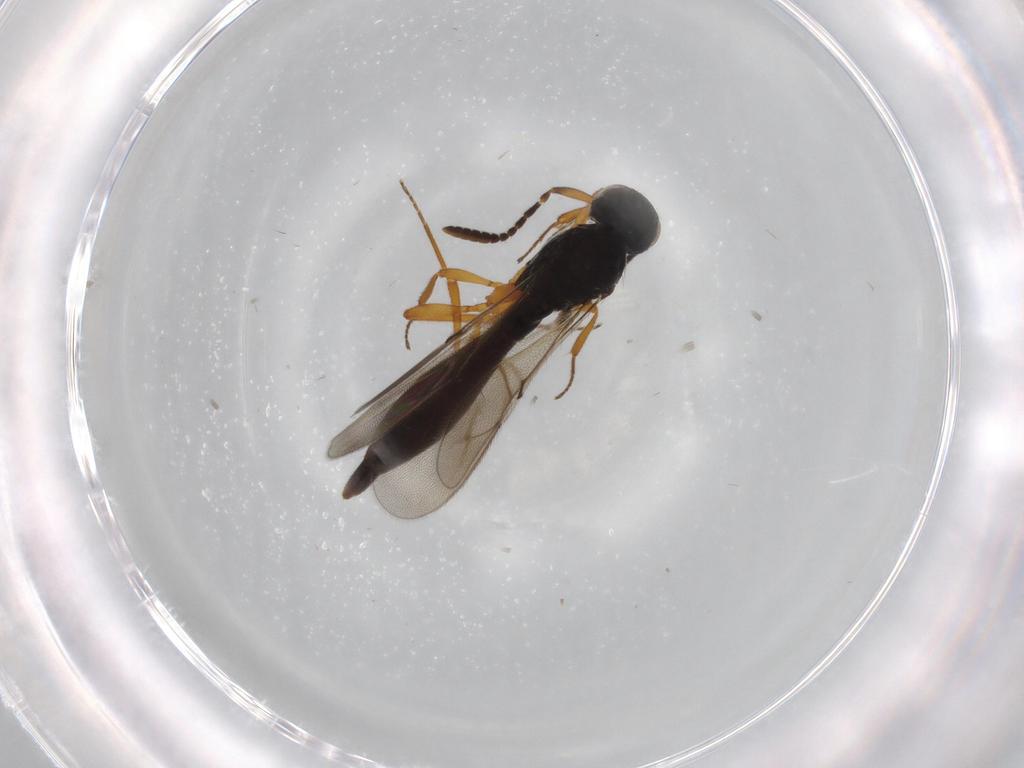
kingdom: Animalia
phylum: Arthropoda
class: Insecta
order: Hymenoptera
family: Scelionidae
